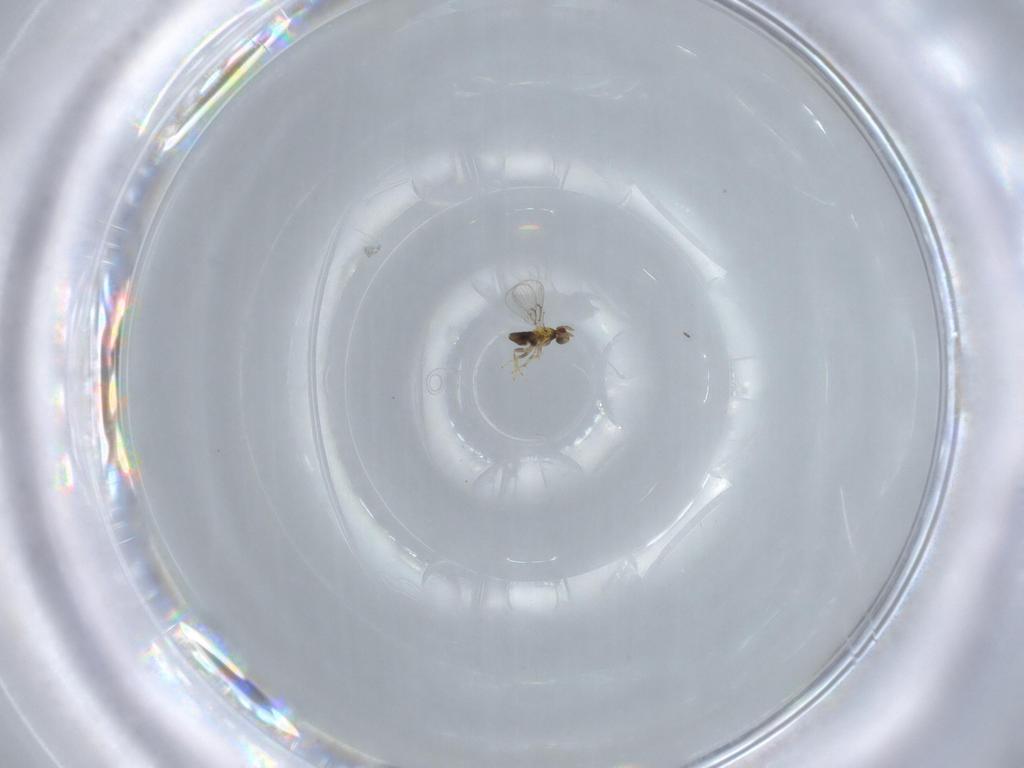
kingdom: Animalia
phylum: Arthropoda
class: Insecta
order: Hymenoptera
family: Trichogrammatidae
